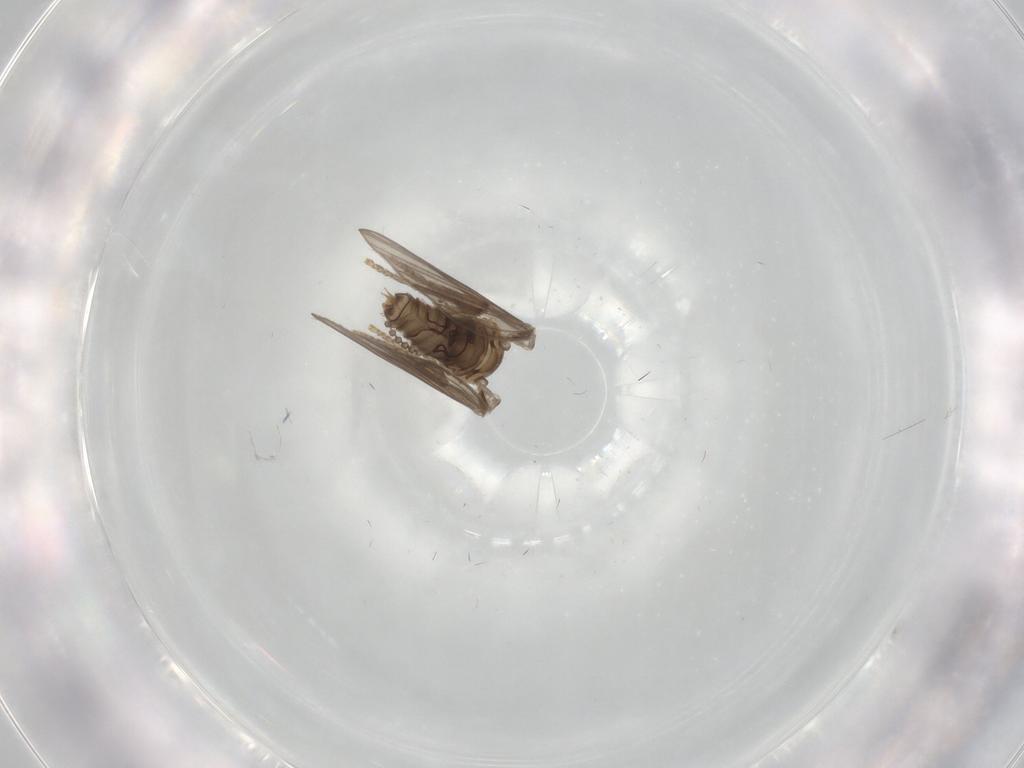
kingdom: Animalia
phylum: Arthropoda
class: Insecta
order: Diptera
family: Psychodidae
